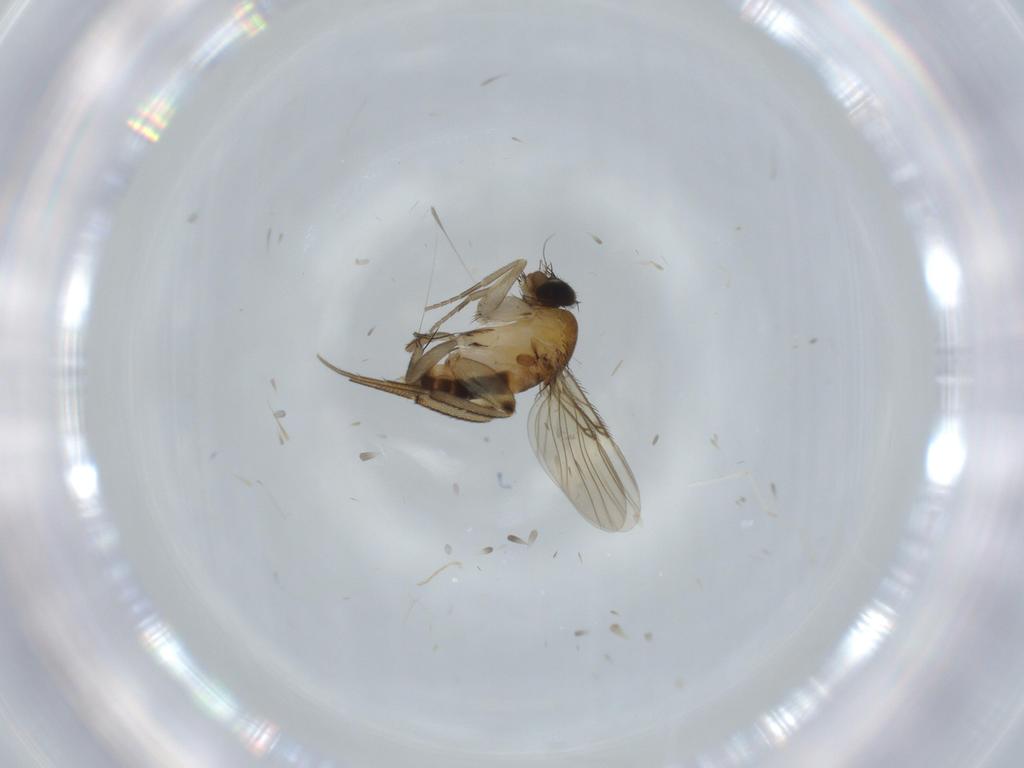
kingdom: Animalia
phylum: Arthropoda
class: Insecta
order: Diptera
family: Phoridae
